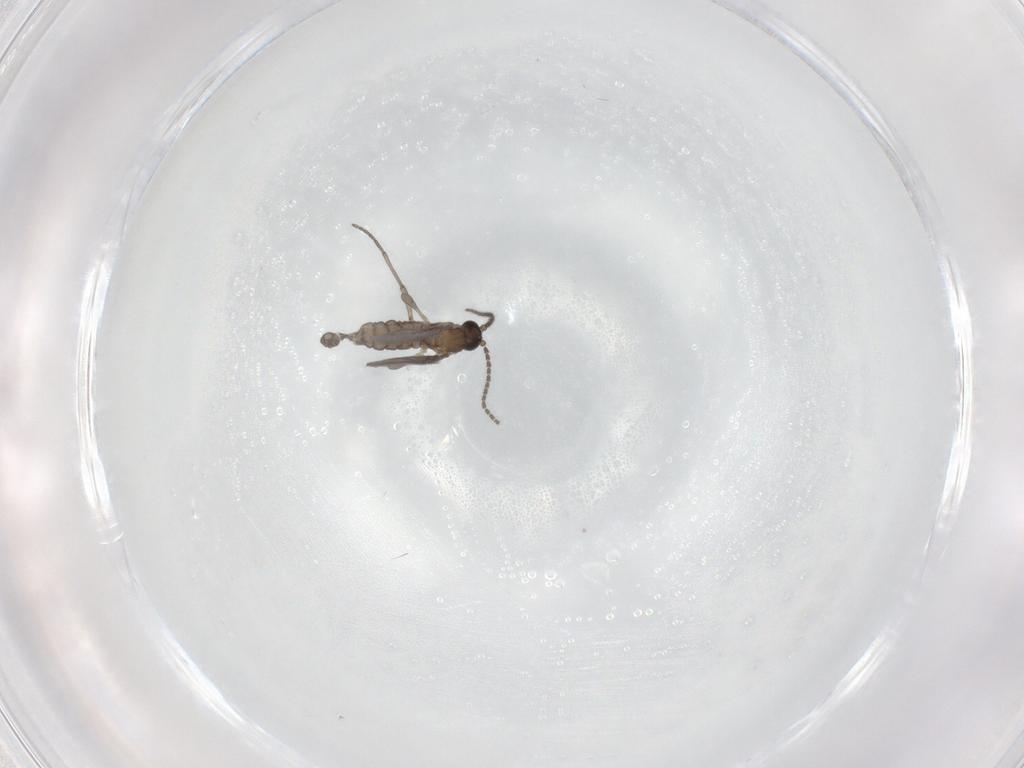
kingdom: Animalia
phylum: Arthropoda
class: Insecta
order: Diptera
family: Sciaridae
